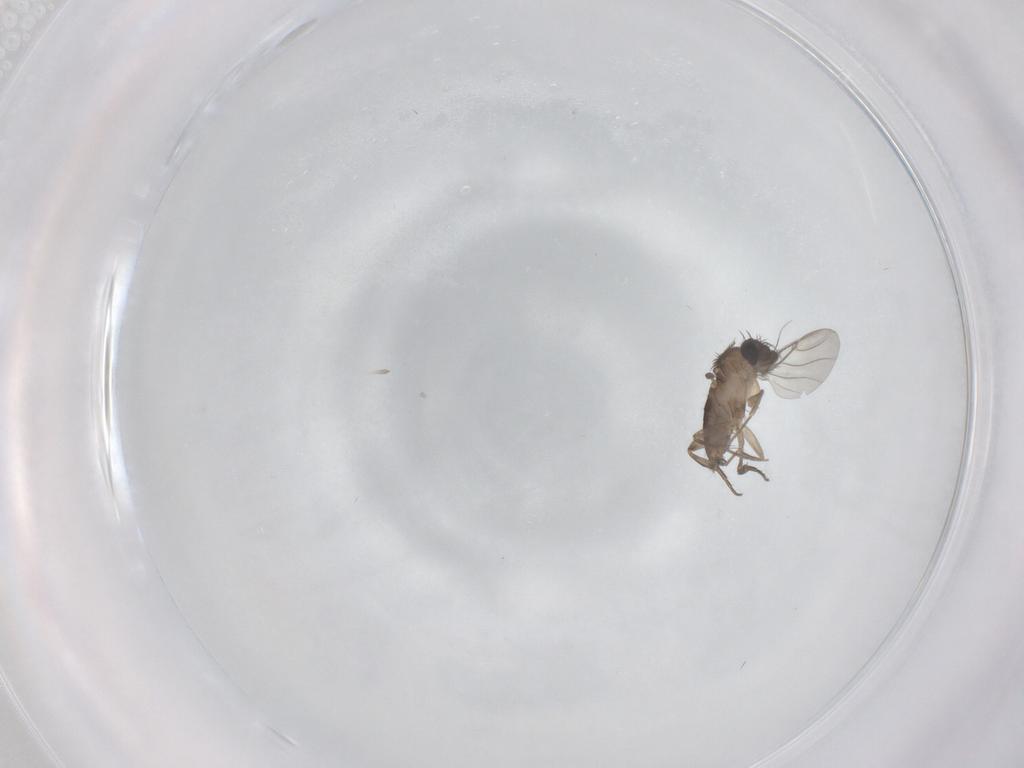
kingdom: Animalia
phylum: Arthropoda
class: Insecta
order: Diptera
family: Phoridae
